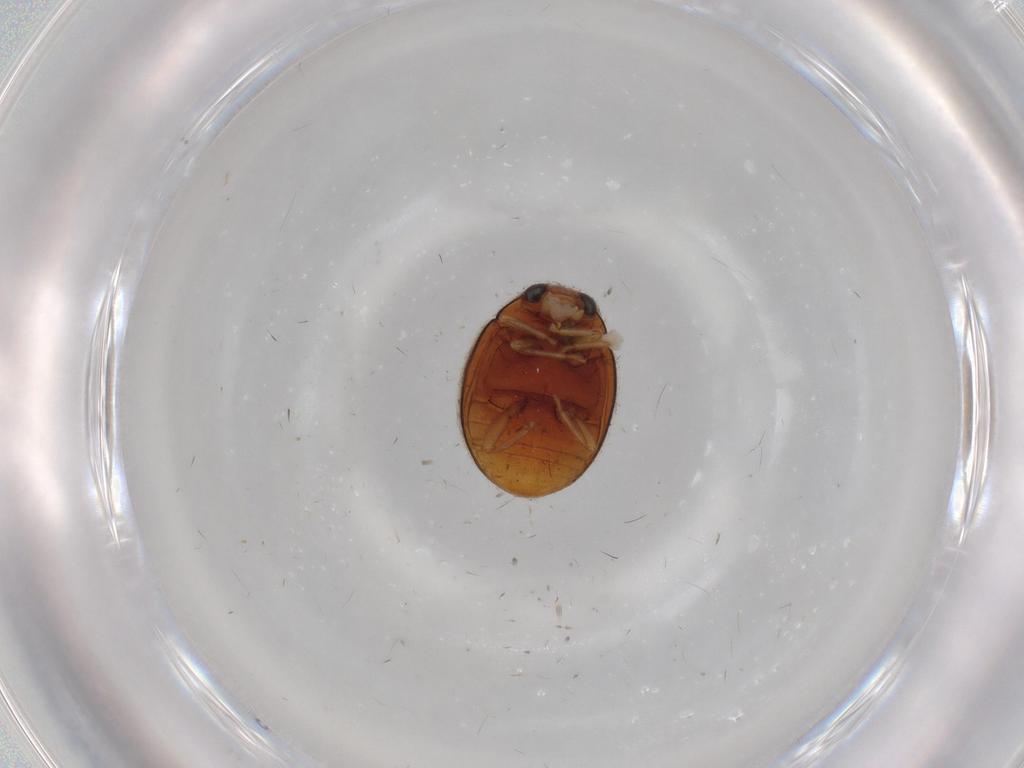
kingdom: Animalia
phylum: Arthropoda
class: Insecta
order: Coleoptera
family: Coccinellidae
